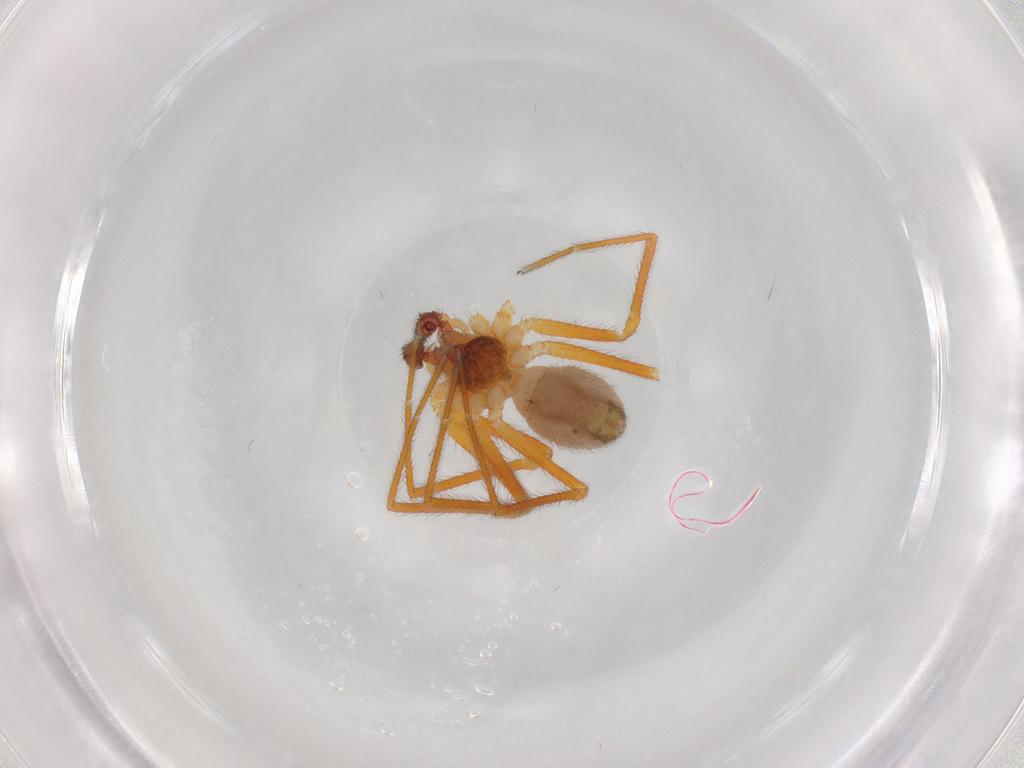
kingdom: Animalia
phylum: Arthropoda
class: Arachnida
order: Araneae
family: Linyphiidae
